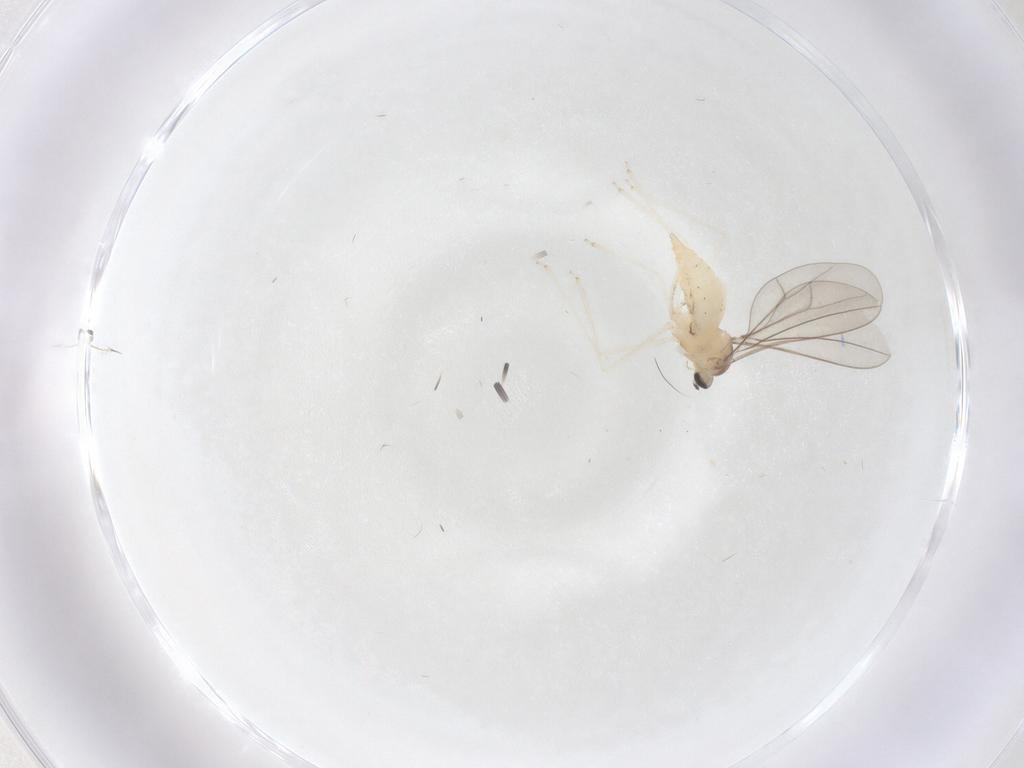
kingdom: Animalia
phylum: Arthropoda
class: Insecta
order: Diptera
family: Cecidomyiidae
